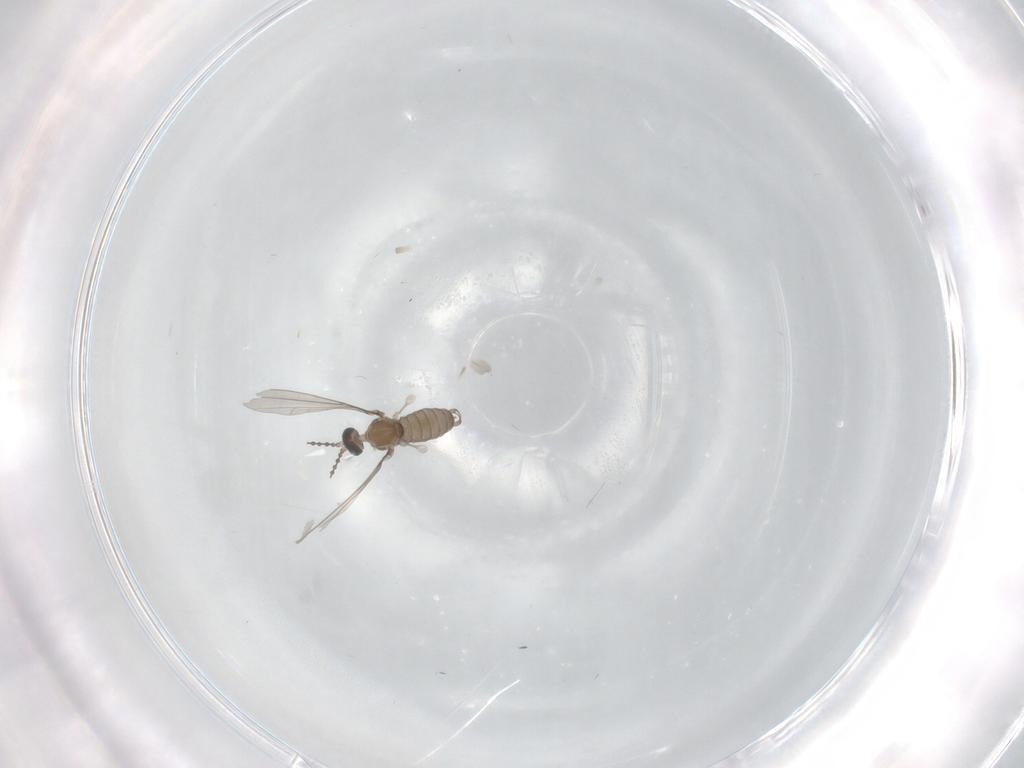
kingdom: Animalia
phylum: Arthropoda
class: Insecta
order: Diptera
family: Cecidomyiidae
